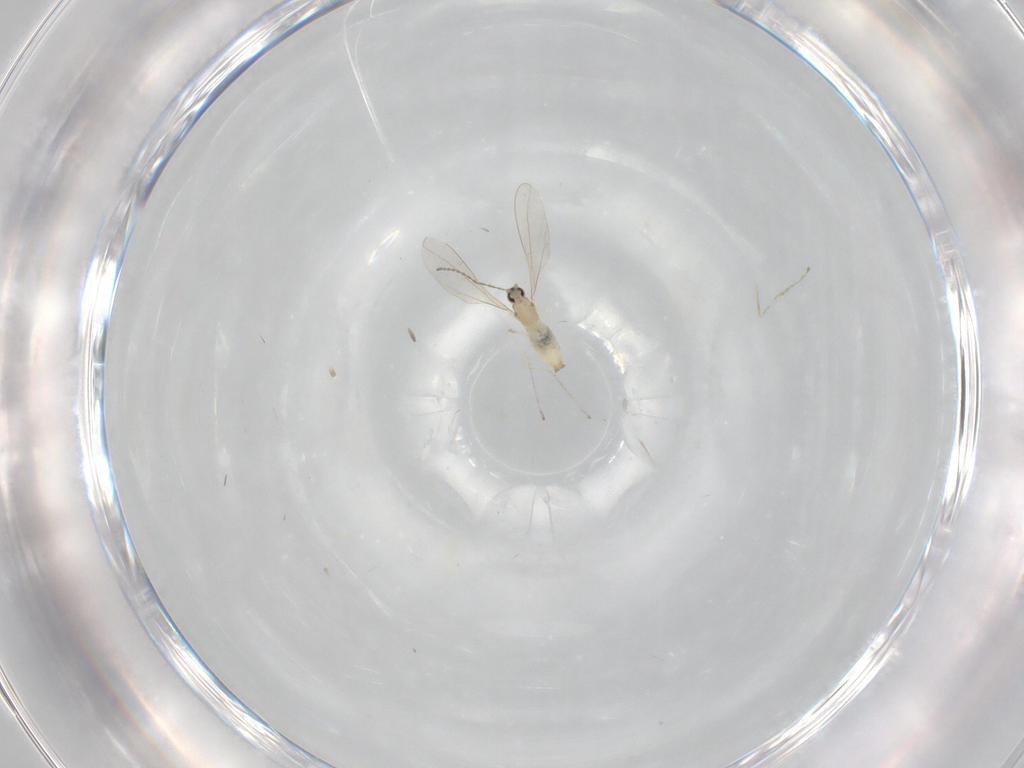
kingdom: Animalia
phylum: Arthropoda
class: Insecta
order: Diptera
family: Cecidomyiidae
